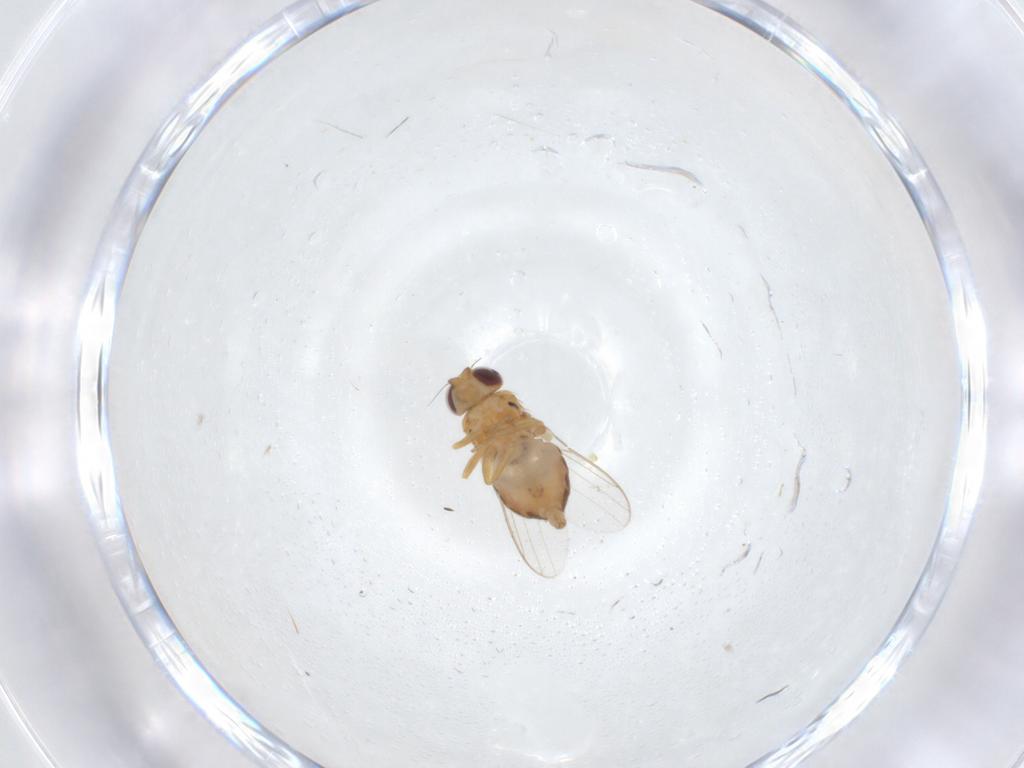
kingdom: Animalia
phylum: Arthropoda
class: Insecta
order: Diptera
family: Chloropidae
